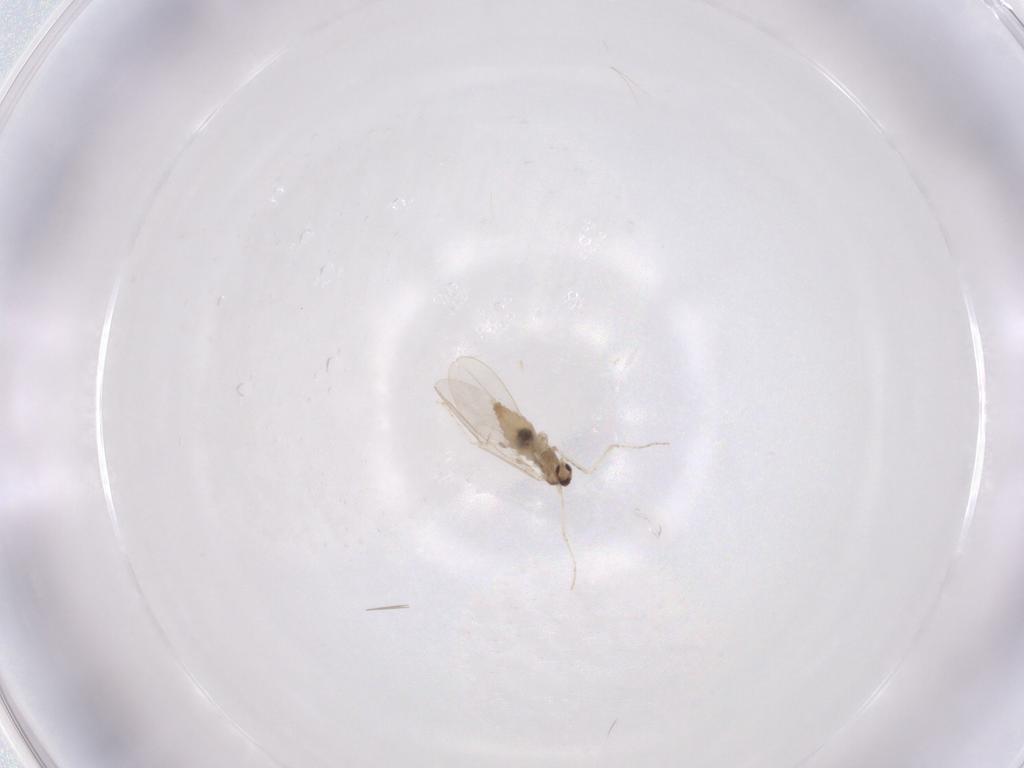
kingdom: Animalia
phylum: Arthropoda
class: Insecta
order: Diptera
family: Cecidomyiidae
